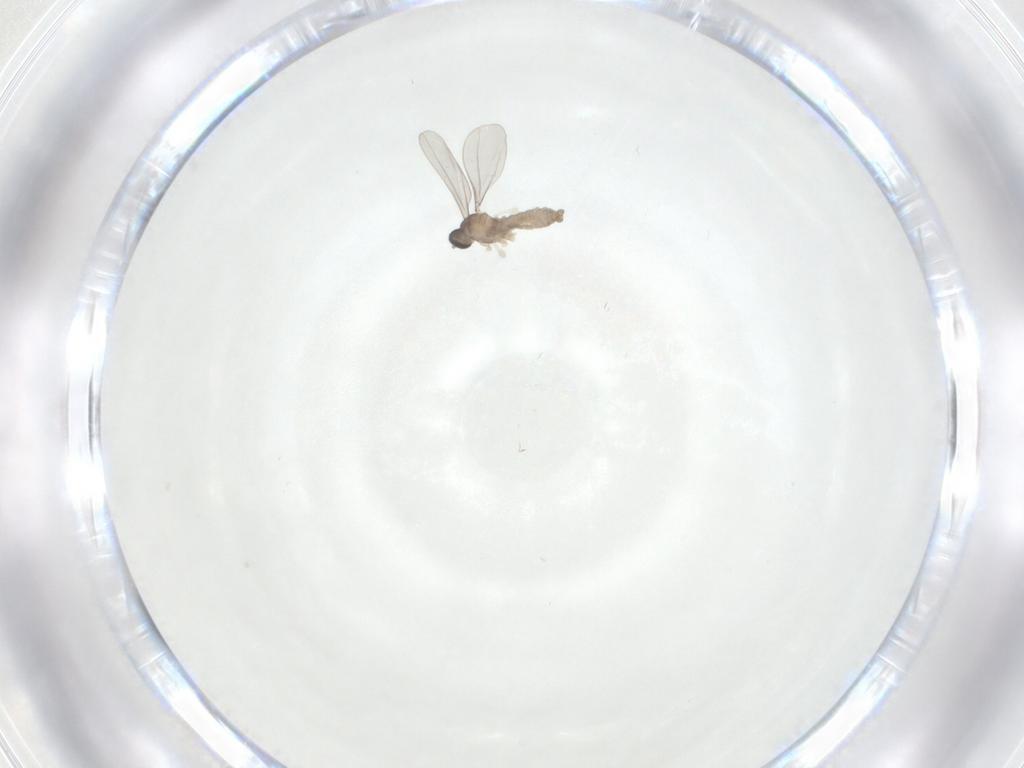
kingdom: Animalia
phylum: Arthropoda
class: Insecta
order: Diptera
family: Cecidomyiidae
